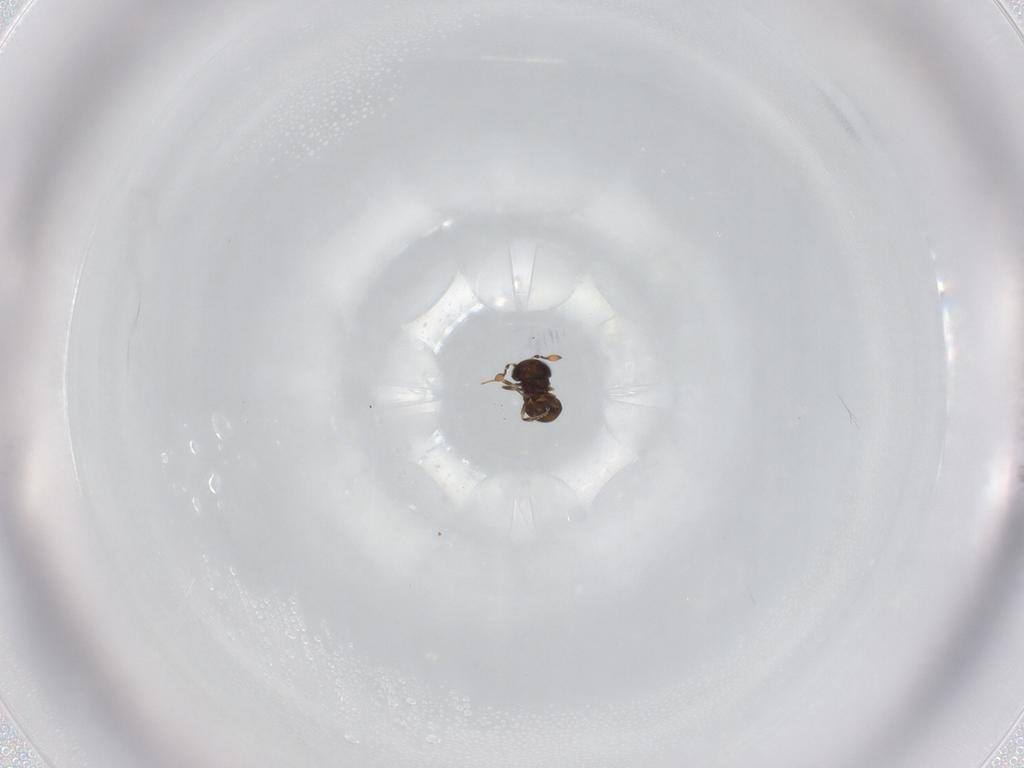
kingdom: Animalia
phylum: Arthropoda
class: Insecta
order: Hymenoptera
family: Scelionidae
